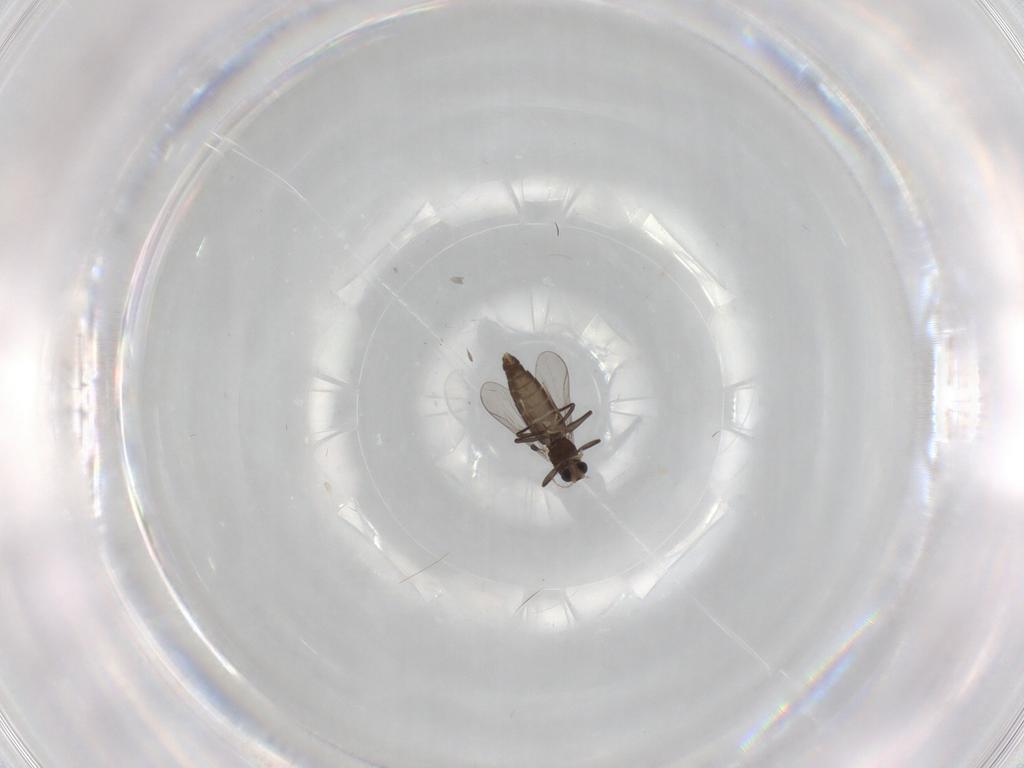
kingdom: Animalia
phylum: Arthropoda
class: Insecta
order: Diptera
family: Chironomidae
